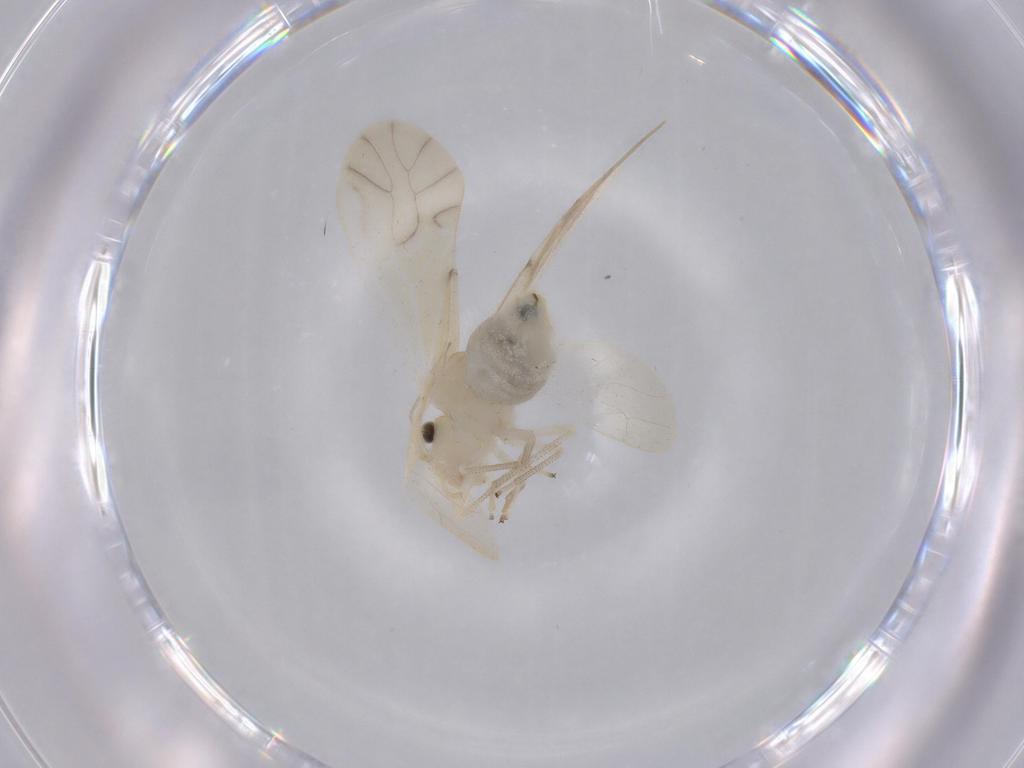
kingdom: Animalia
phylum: Arthropoda
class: Insecta
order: Psocodea
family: Caeciliusidae
